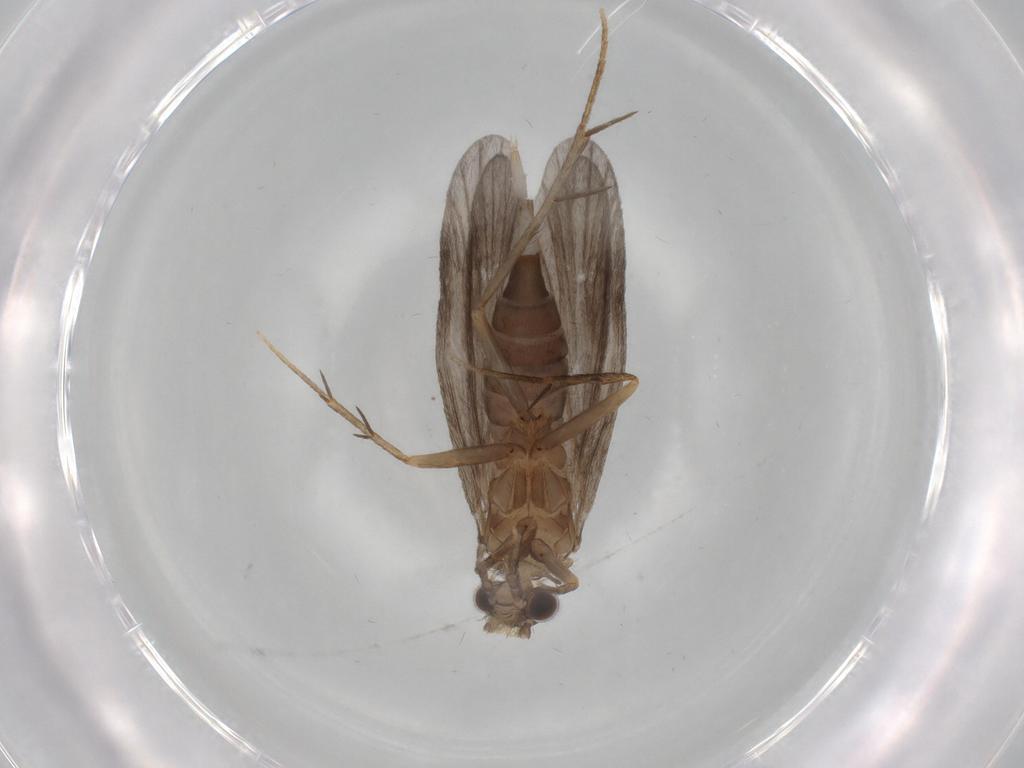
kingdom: Animalia
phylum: Arthropoda
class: Insecta
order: Trichoptera
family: Philopotamidae
